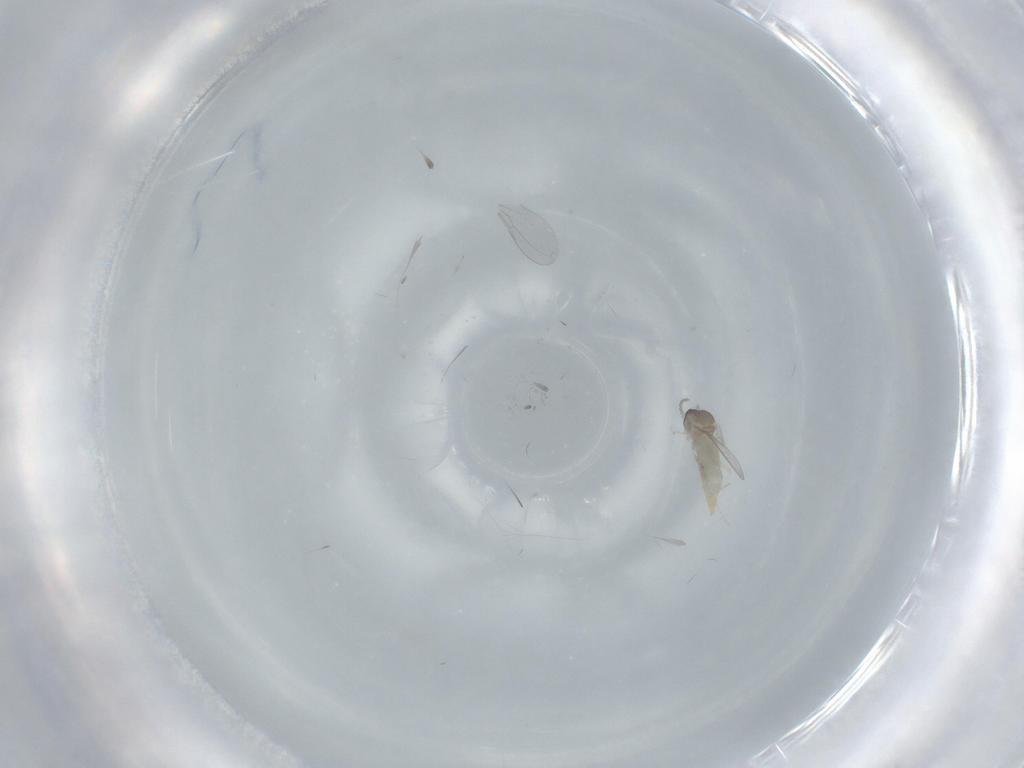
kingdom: Animalia
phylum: Arthropoda
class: Insecta
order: Diptera
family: Cecidomyiidae
